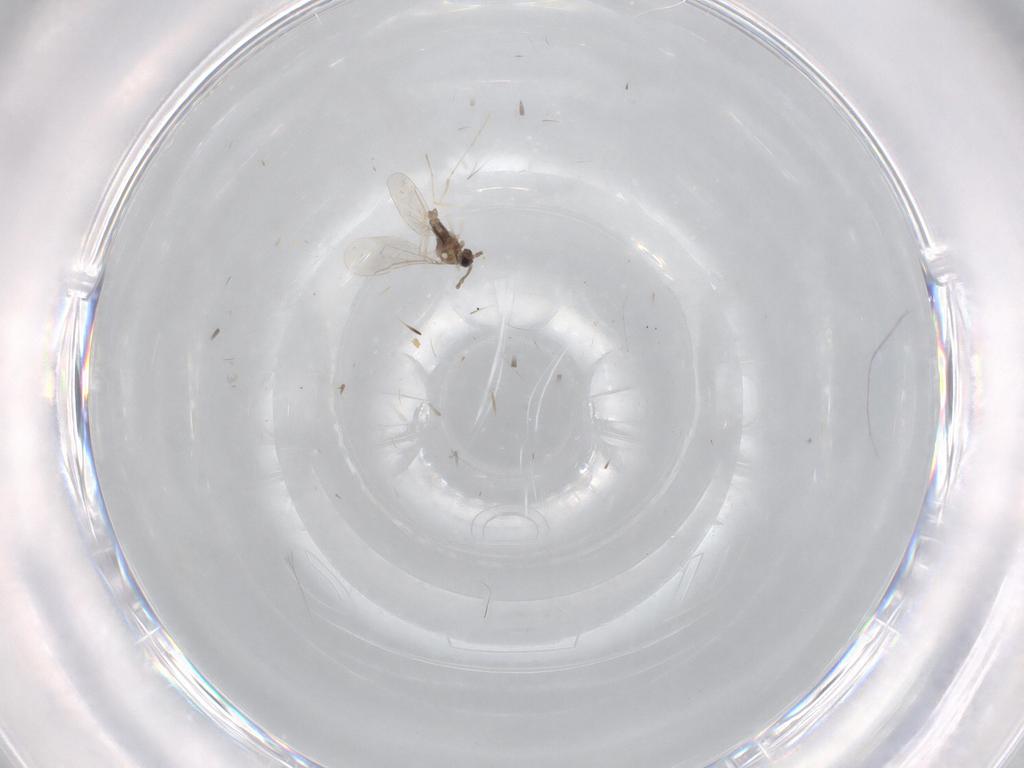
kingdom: Animalia
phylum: Arthropoda
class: Insecta
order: Diptera
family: Cecidomyiidae
